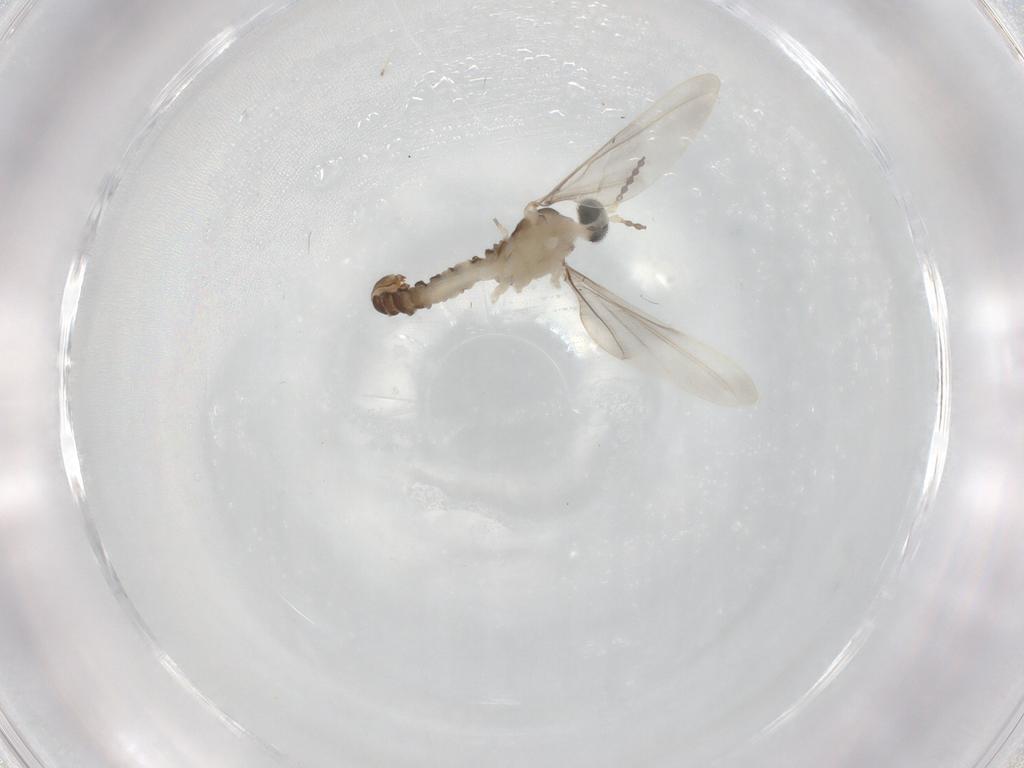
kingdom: Animalia
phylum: Arthropoda
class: Insecta
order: Diptera
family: Cecidomyiidae
